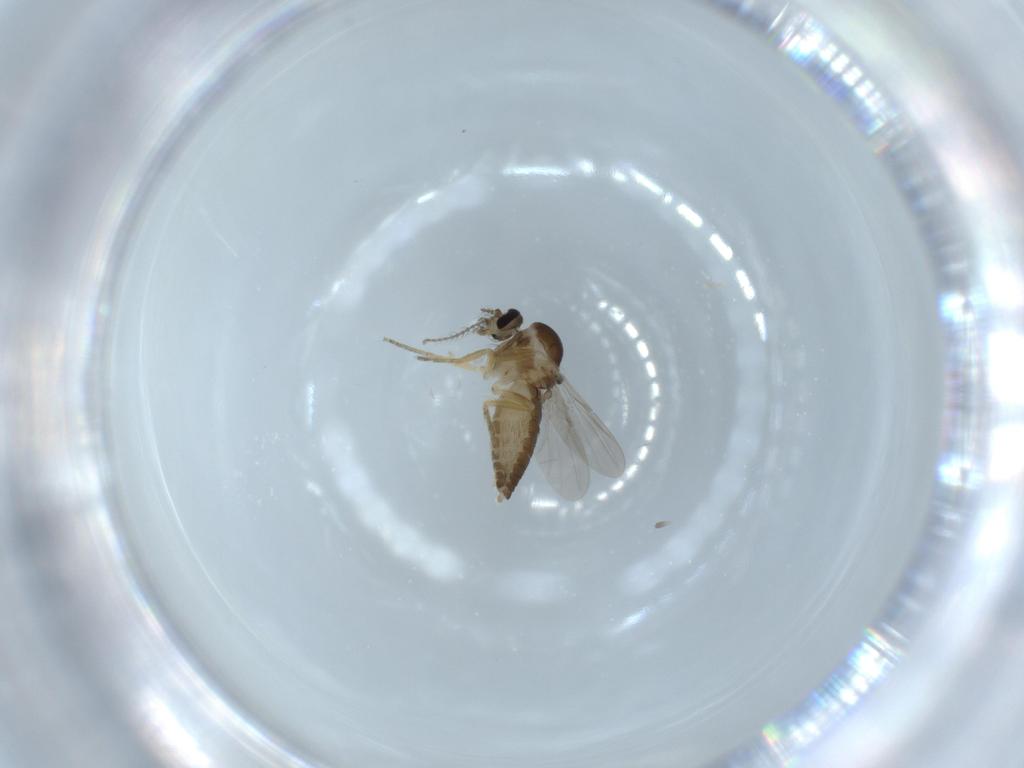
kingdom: Animalia
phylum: Arthropoda
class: Insecta
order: Diptera
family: Ceratopogonidae
